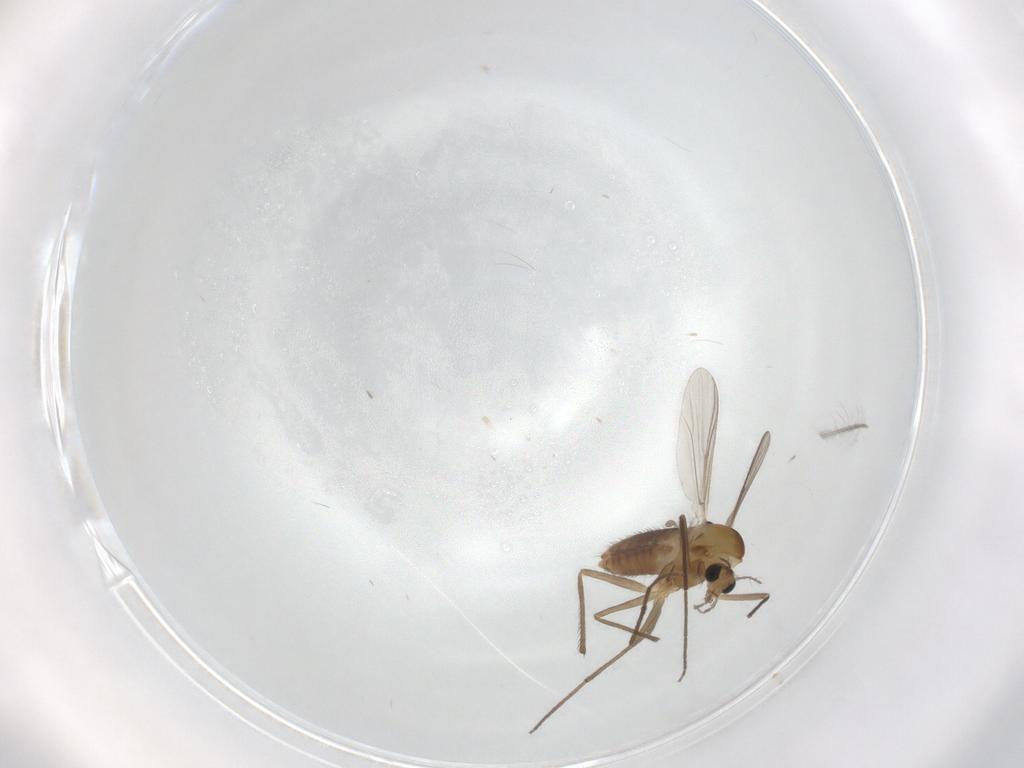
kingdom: Animalia
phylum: Arthropoda
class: Insecta
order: Diptera
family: Chironomidae
